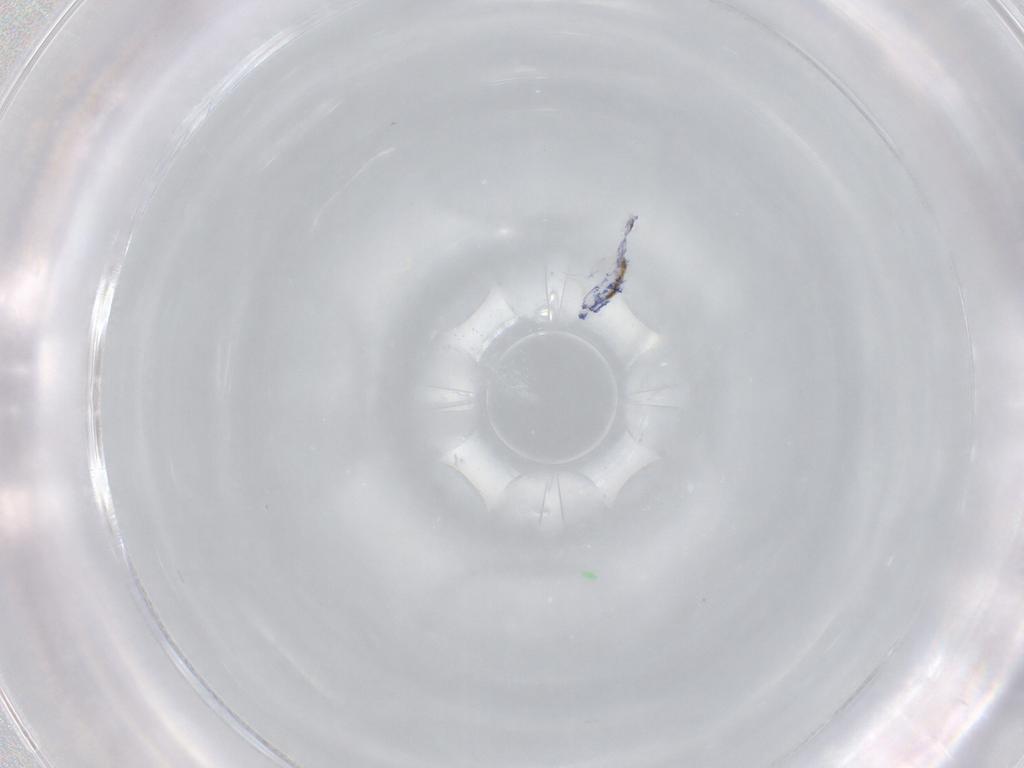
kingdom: Animalia
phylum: Arthropoda
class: Collembola
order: Entomobryomorpha
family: Entomobryidae
